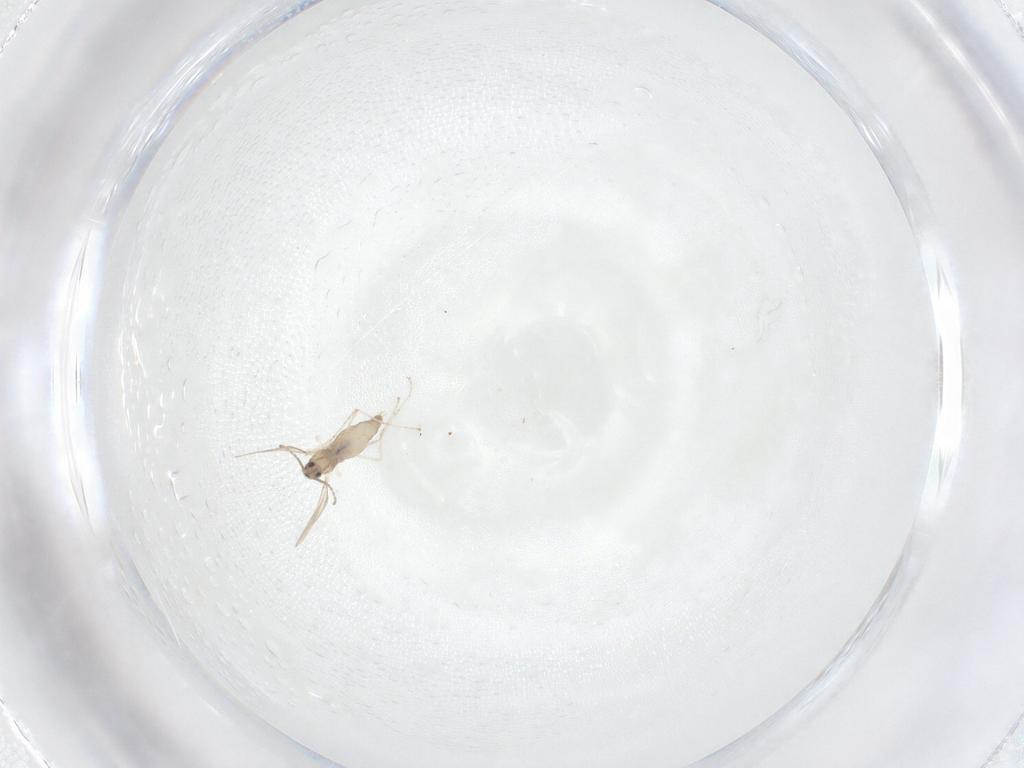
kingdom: Animalia
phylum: Arthropoda
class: Insecta
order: Diptera
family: Cecidomyiidae
